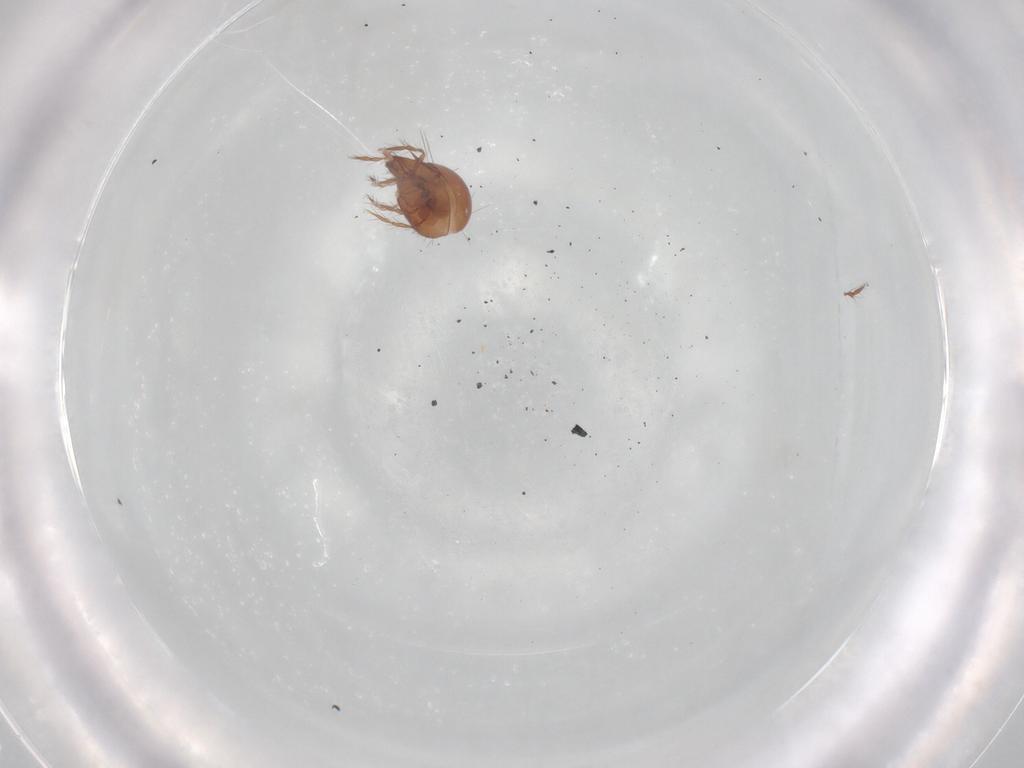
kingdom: Animalia
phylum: Arthropoda
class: Arachnida
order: Sarcoptiformes
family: Ceratoppiidae
